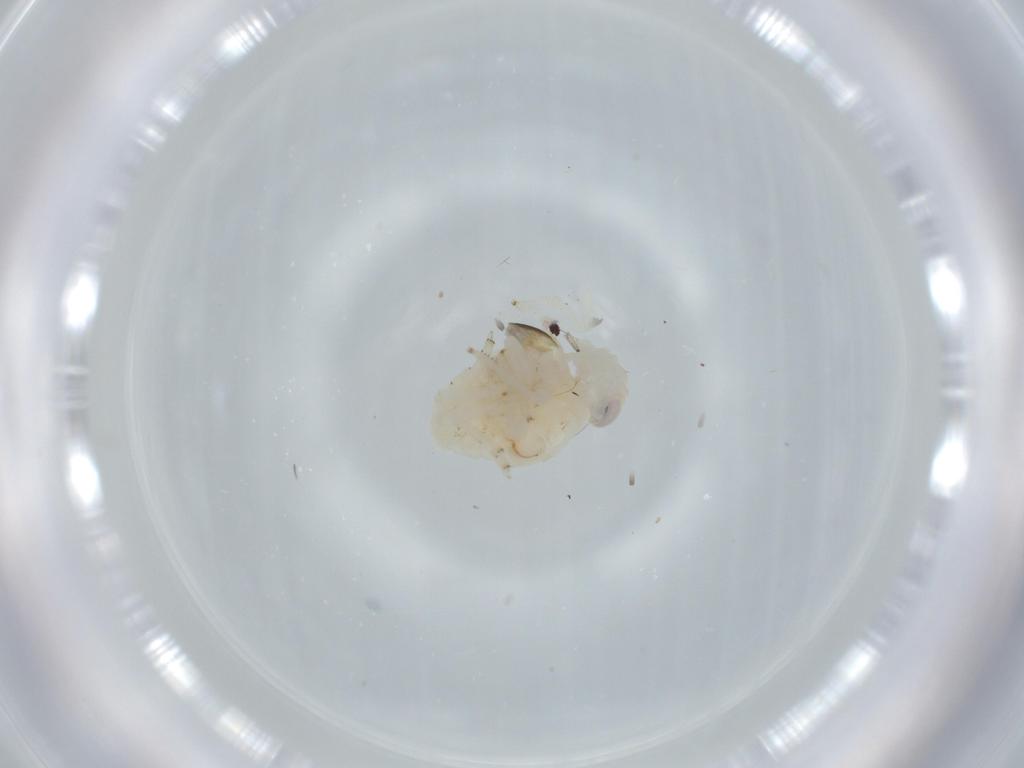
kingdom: Animalia
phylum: Arthropoda
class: Insecta
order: Hemiptera
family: Nogodinidae
